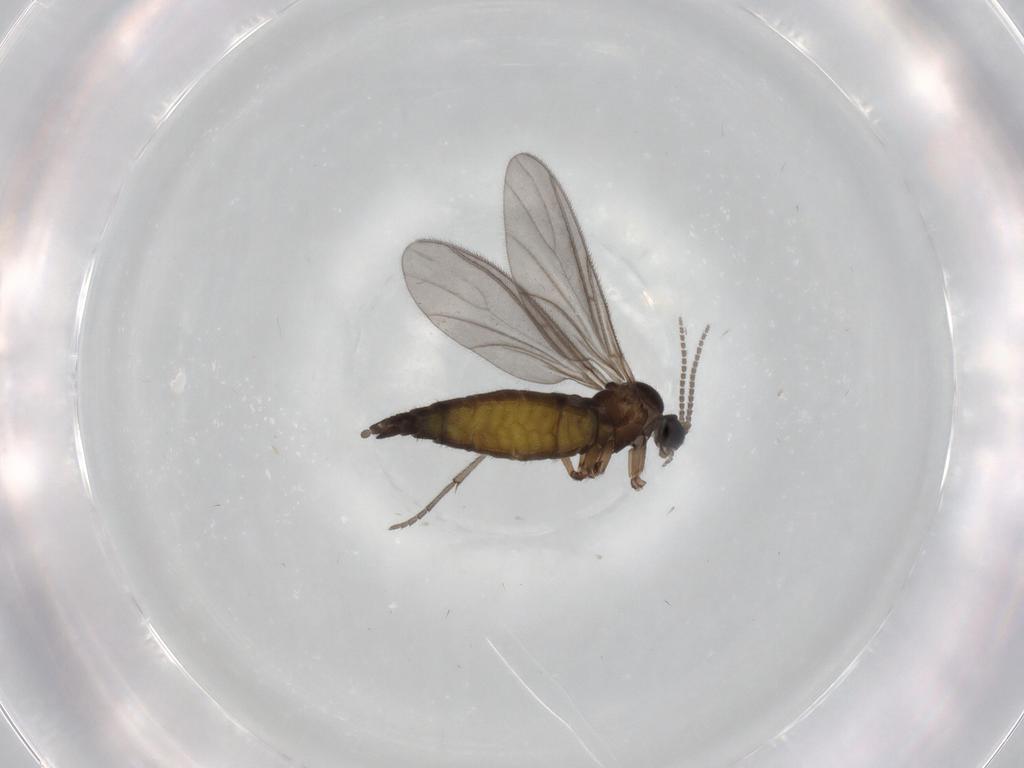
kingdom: Animalia
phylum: Arthropoda
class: Insecta
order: Diptera
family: Sciaridae
